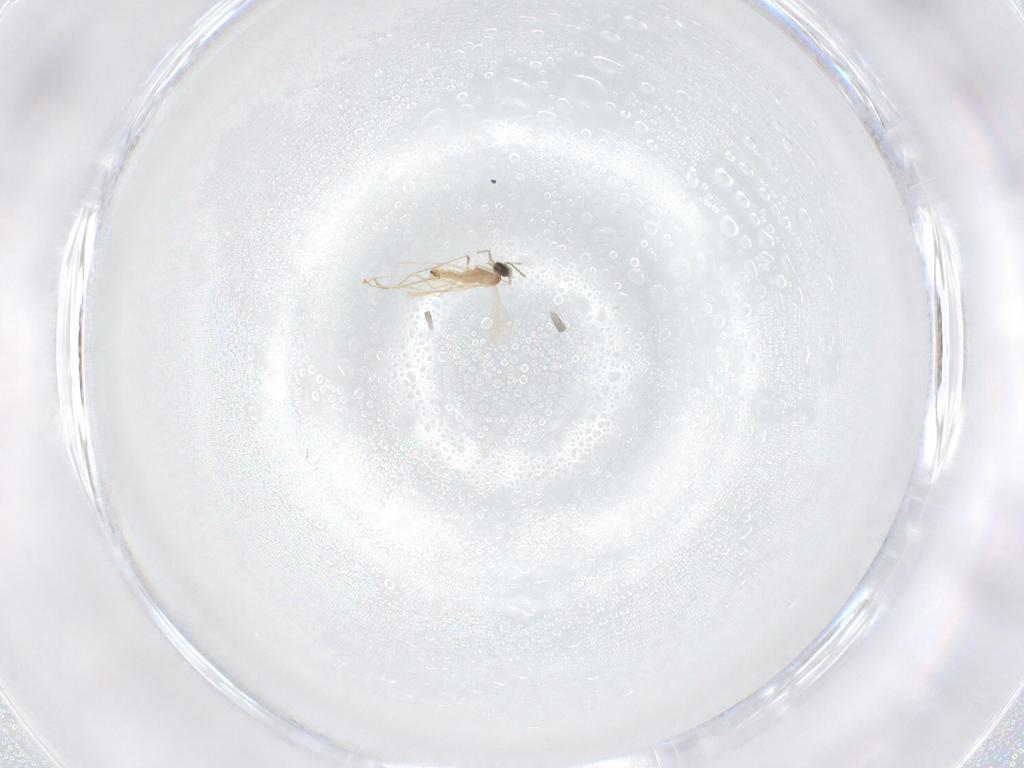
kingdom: Animalia
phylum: Arthropoda
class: Insecta
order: Diptera
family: Cecidomyiidae
